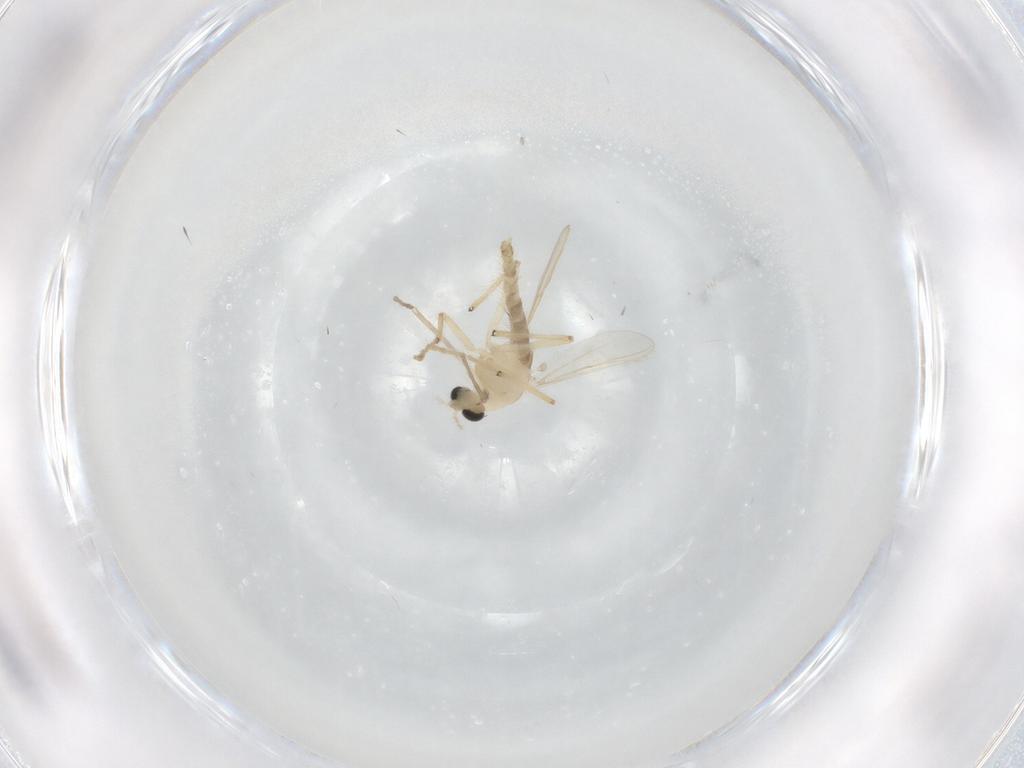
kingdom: Animalia
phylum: Arthropoda
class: Insecta
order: Diptera
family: Chironomidae
